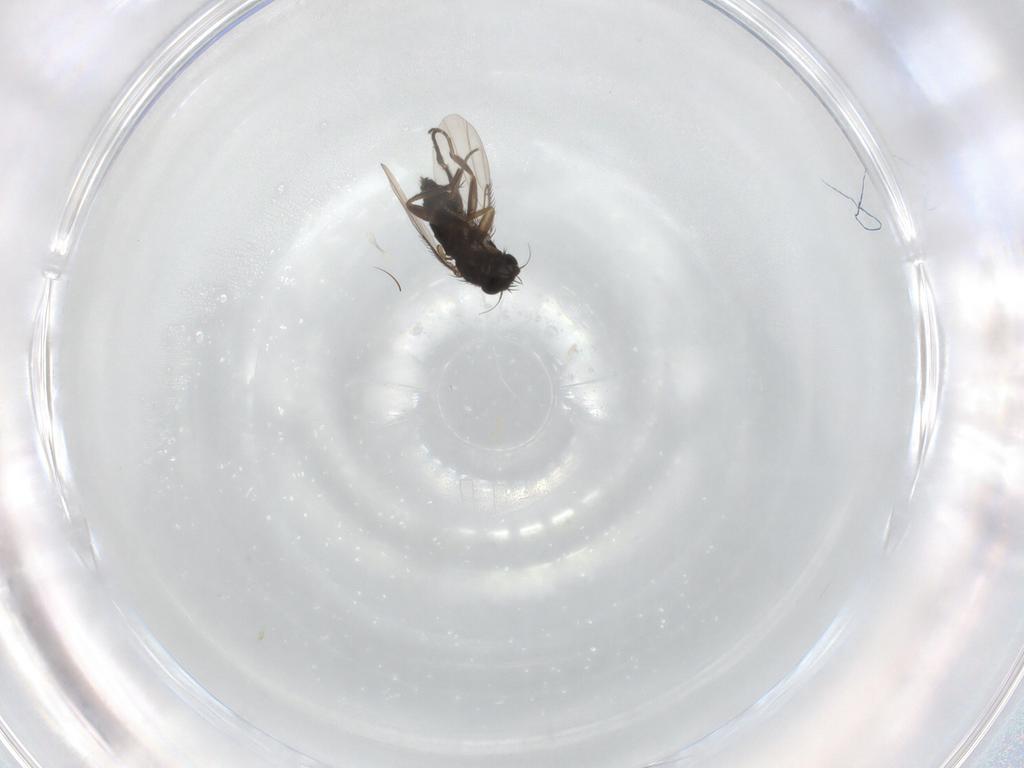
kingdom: Animalia
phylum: Arthropoda
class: Insecta
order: Diptera
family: Phoridae
